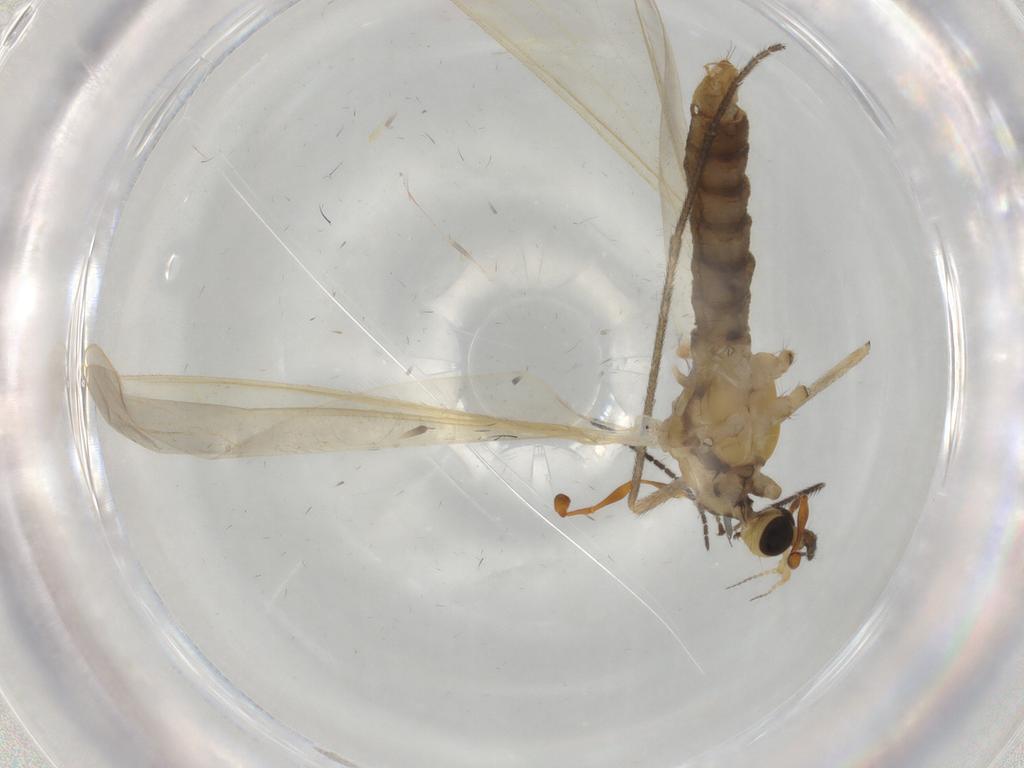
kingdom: Animalia
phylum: Arthropoda
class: Insecta
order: Diptera
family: Limoniidae
